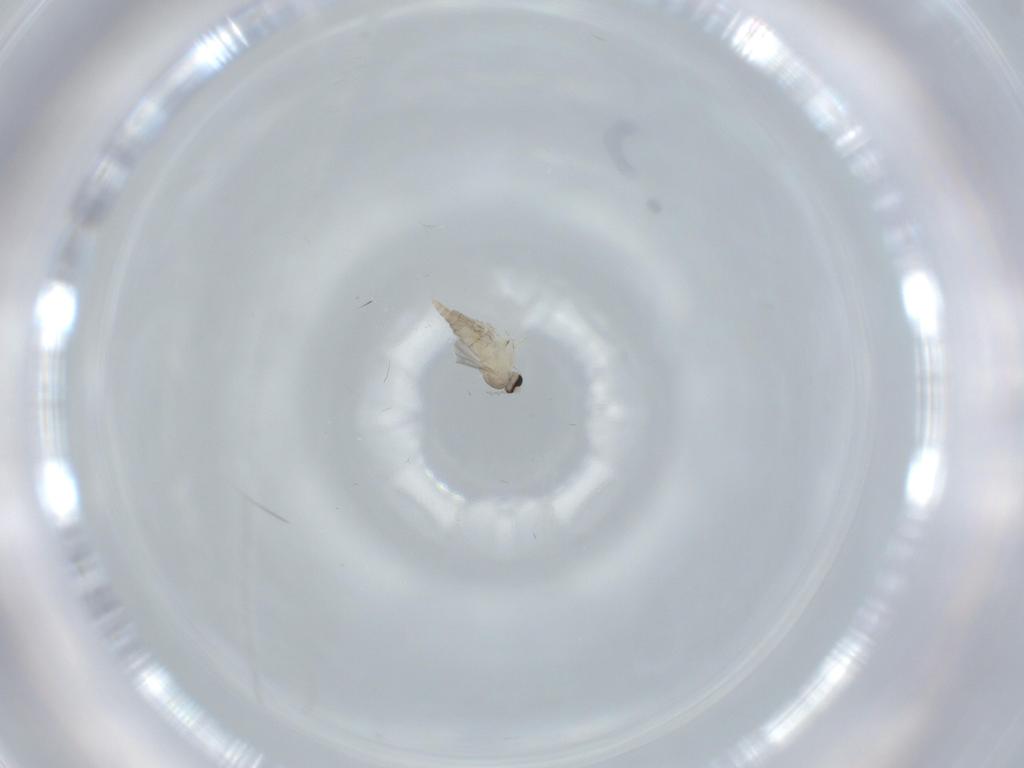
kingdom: Animalia
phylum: Arthropoda
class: Insecta
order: Diptera
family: Cecidomyiidae
